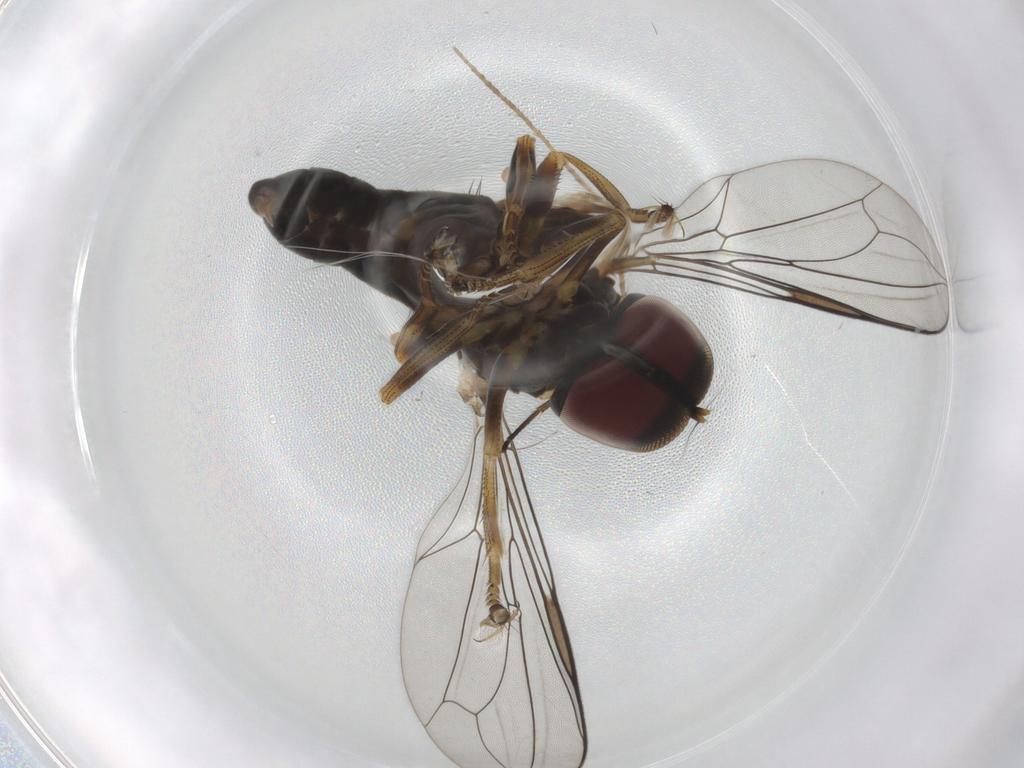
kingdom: Animalia
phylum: Arthropoda
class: Insecta
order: Diptera
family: Pipunculidae
